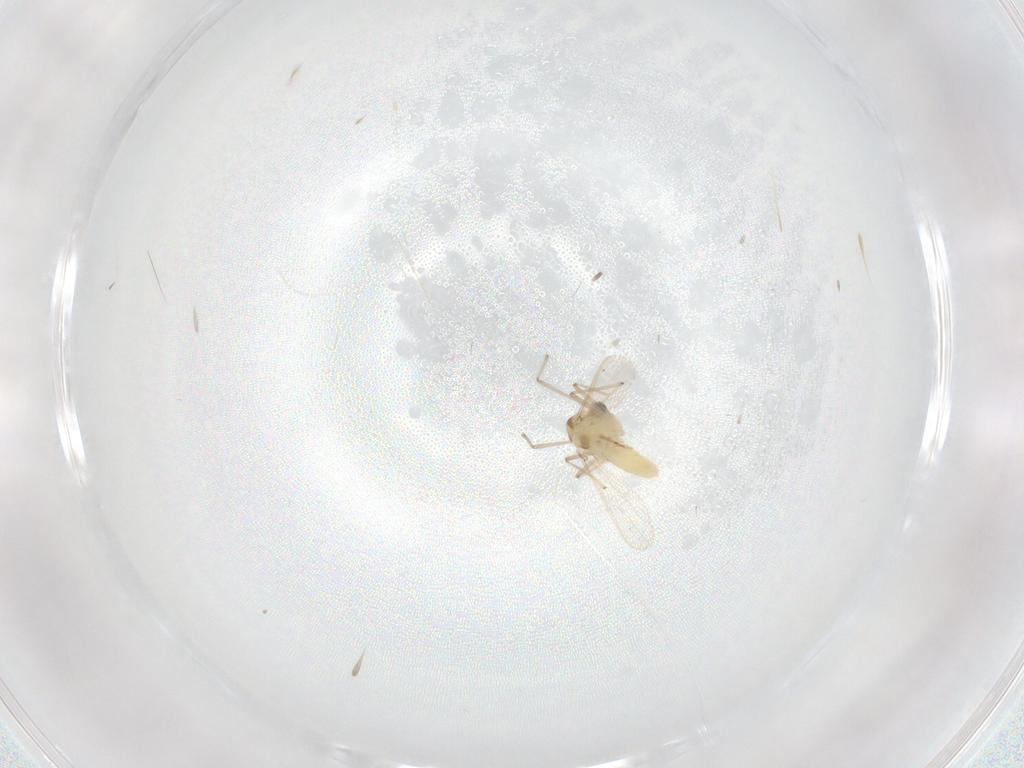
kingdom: Animalia
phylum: Arthropoda
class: Insecta
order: Diptera
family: Chironomidae
